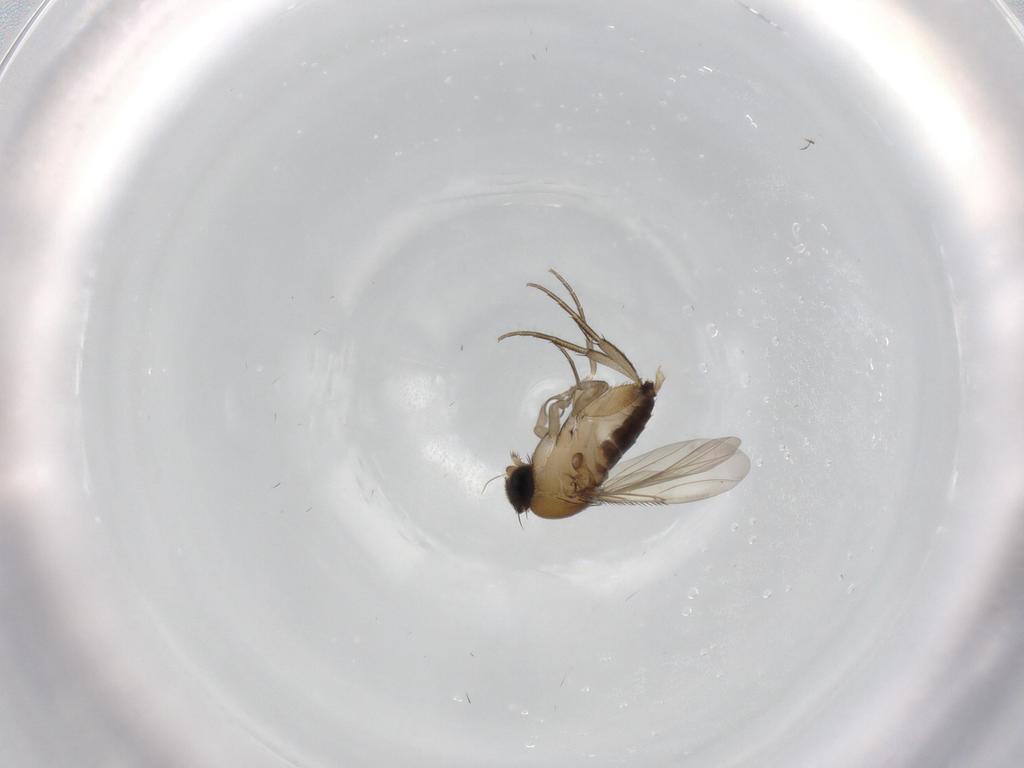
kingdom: Animalia
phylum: Arthropoda
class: Insecta
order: Diptera
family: Phoridae
